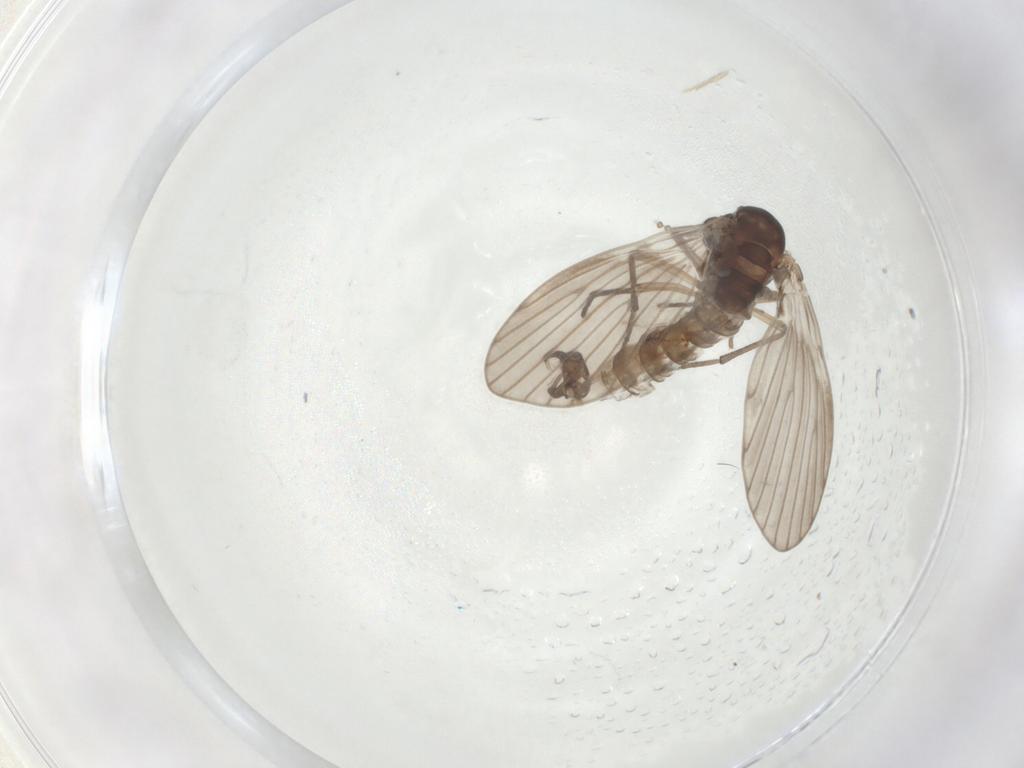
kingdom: Animalia
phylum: Arthropoda
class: Insecta
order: Diptera
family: Psychodidae
